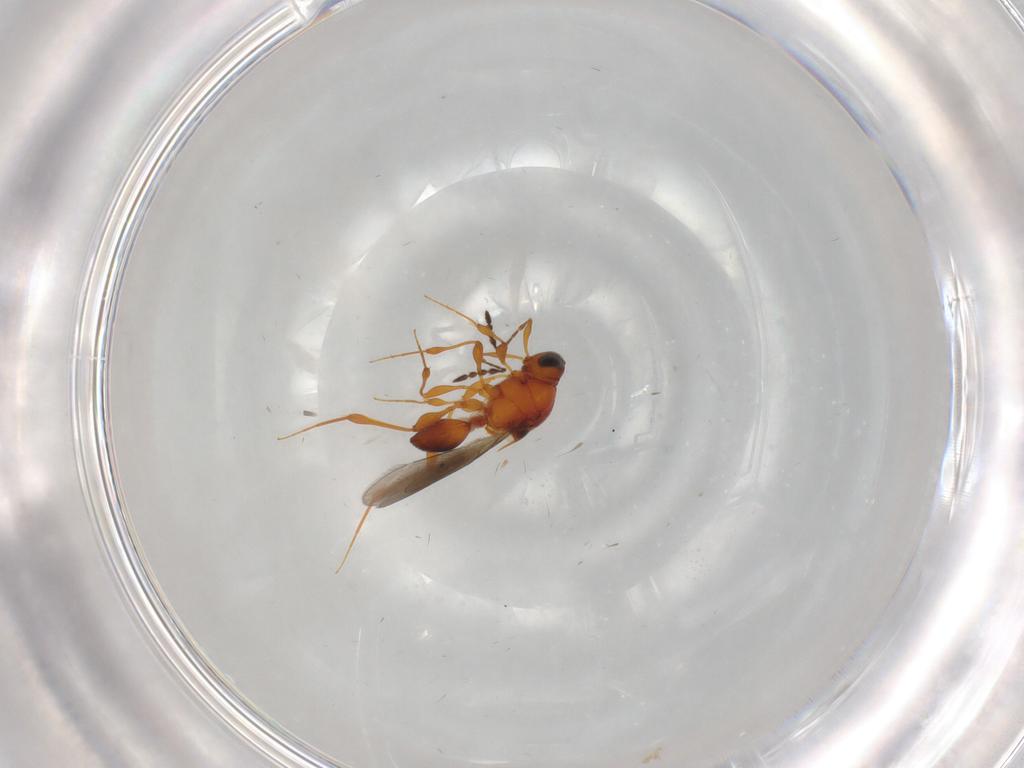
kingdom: Animalia
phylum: Arthropoda
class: Insecta
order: Hymenoptera
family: Platygastridae
